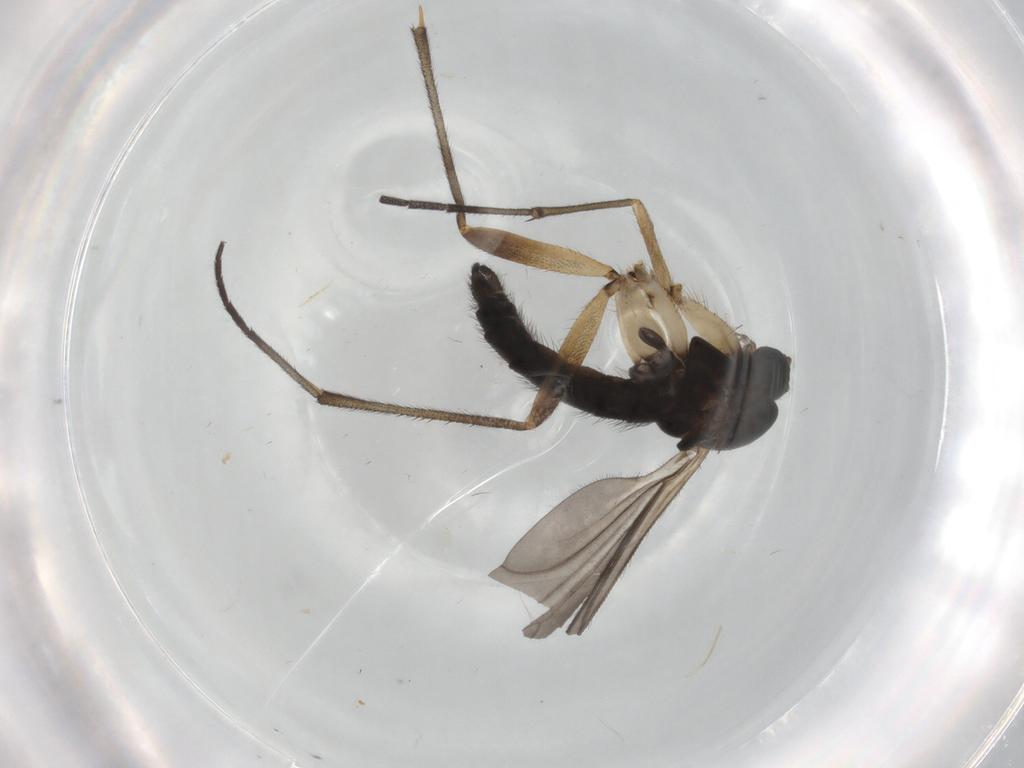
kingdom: Animalia
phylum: Arthropoda
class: Insecta
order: Diptera
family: Sciaridae
